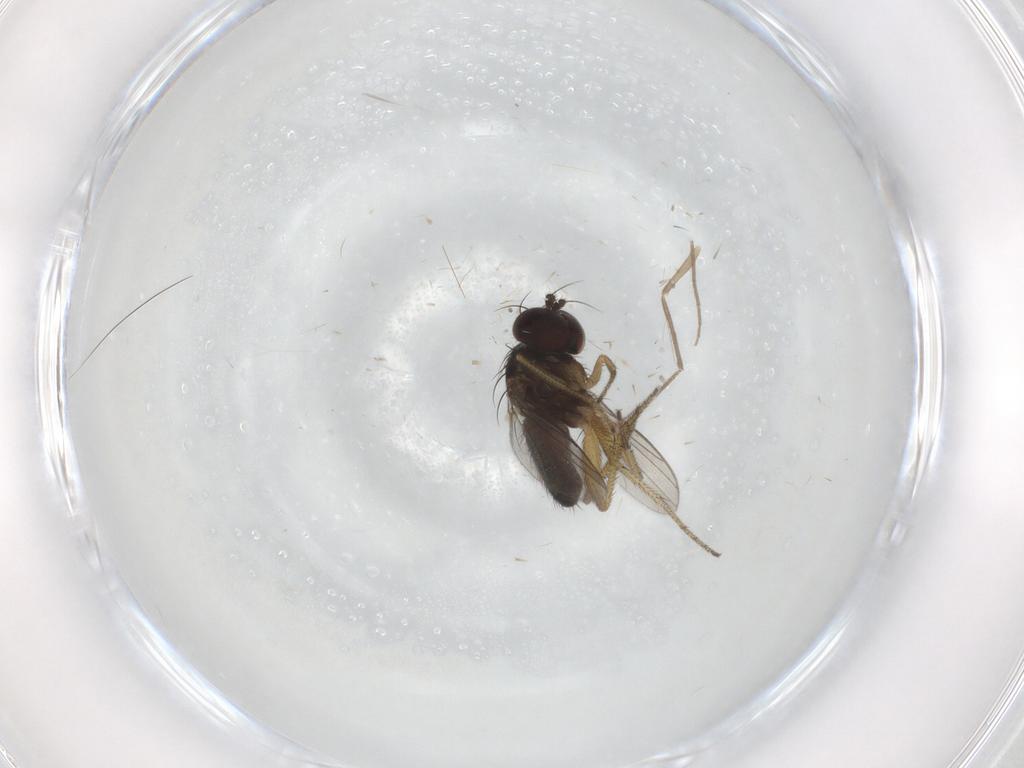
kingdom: Animalia
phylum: Arthropoda
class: Insecta
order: Diptera
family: Chironomidae
